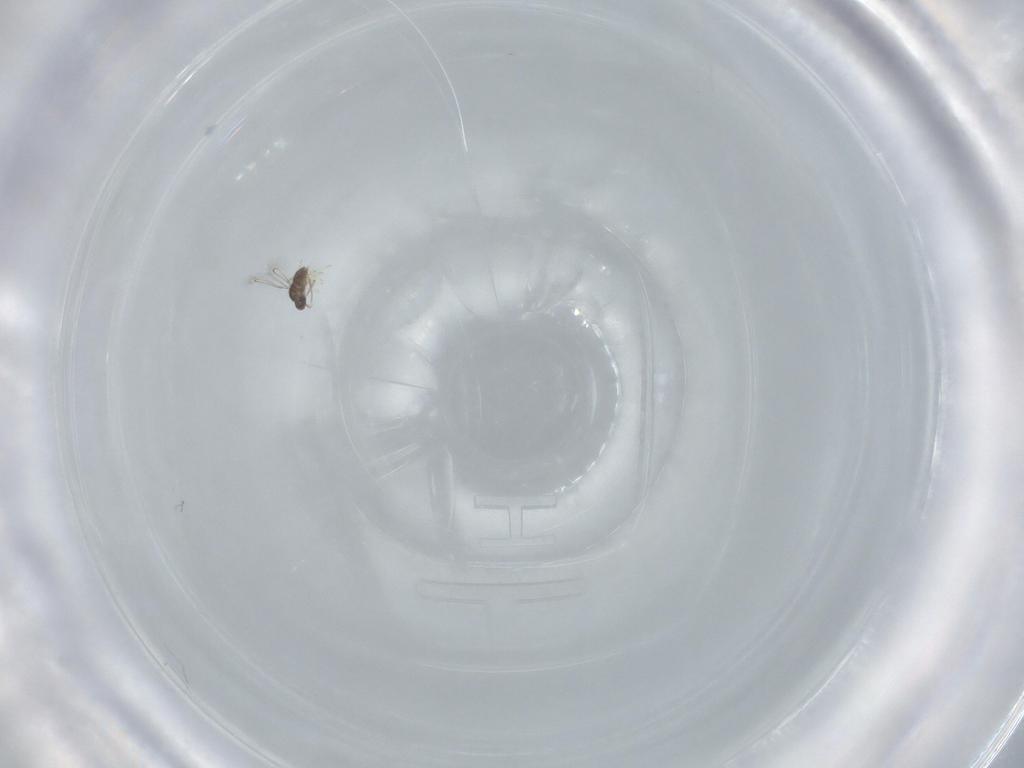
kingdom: Animalia
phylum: Arthropoda
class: Insecta
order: Hymenoptera
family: Mymaridae
